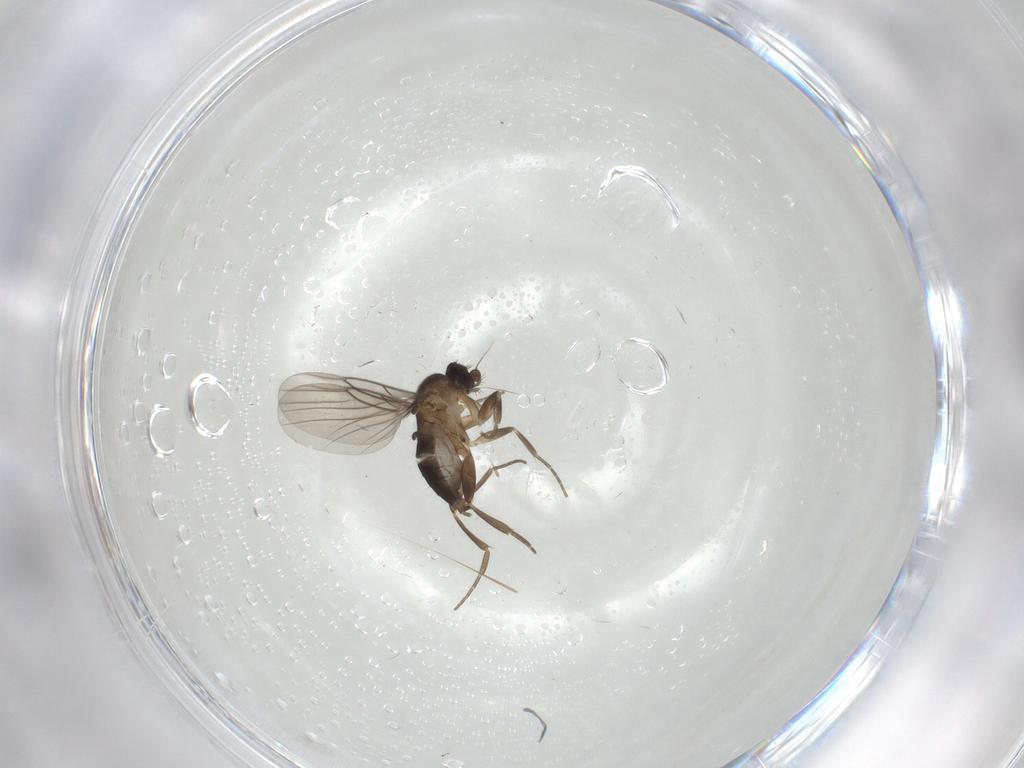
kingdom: Animalia
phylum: Arthropoda
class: Insecta
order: Diptera
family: Phoridae
